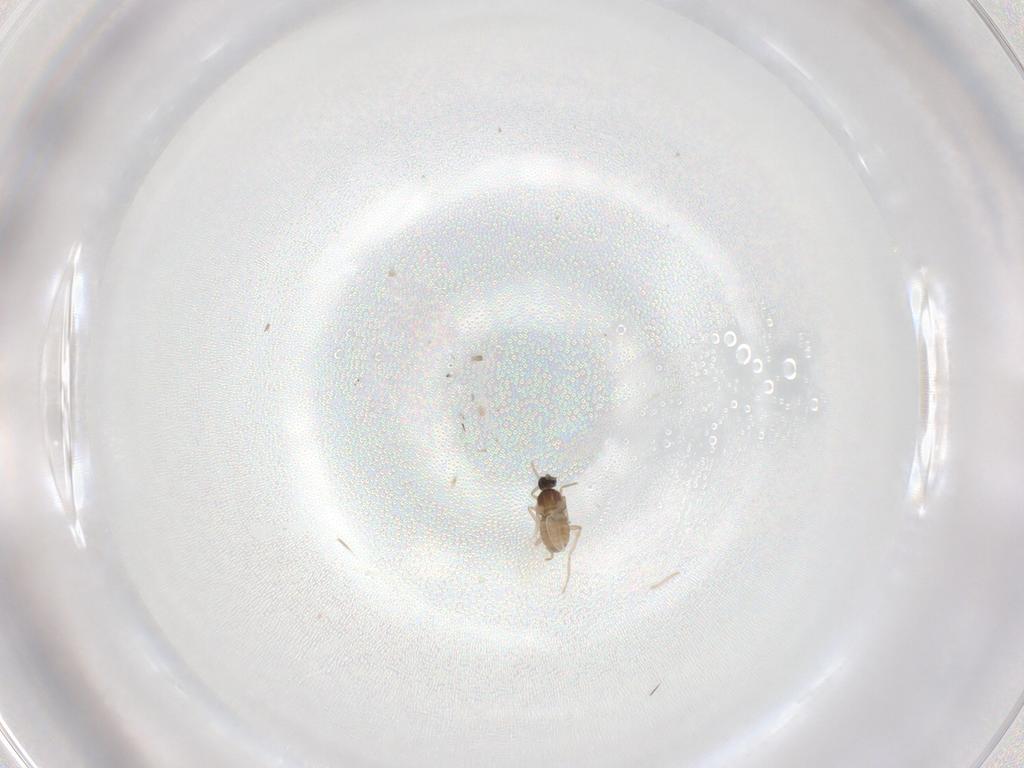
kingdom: Animalia
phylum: Arthropoda
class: Insecta
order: Diptera
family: Cecidomyiidae
